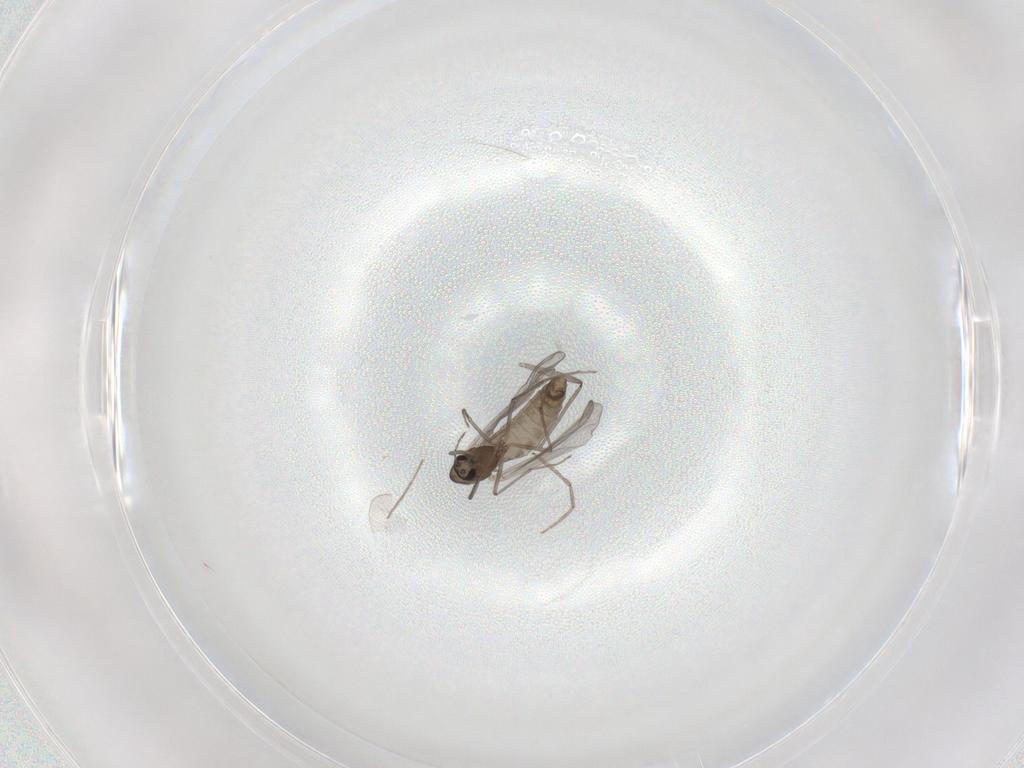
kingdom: Animalia
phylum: Arthropoda
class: Insecta
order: Diptera
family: Chironomidae
